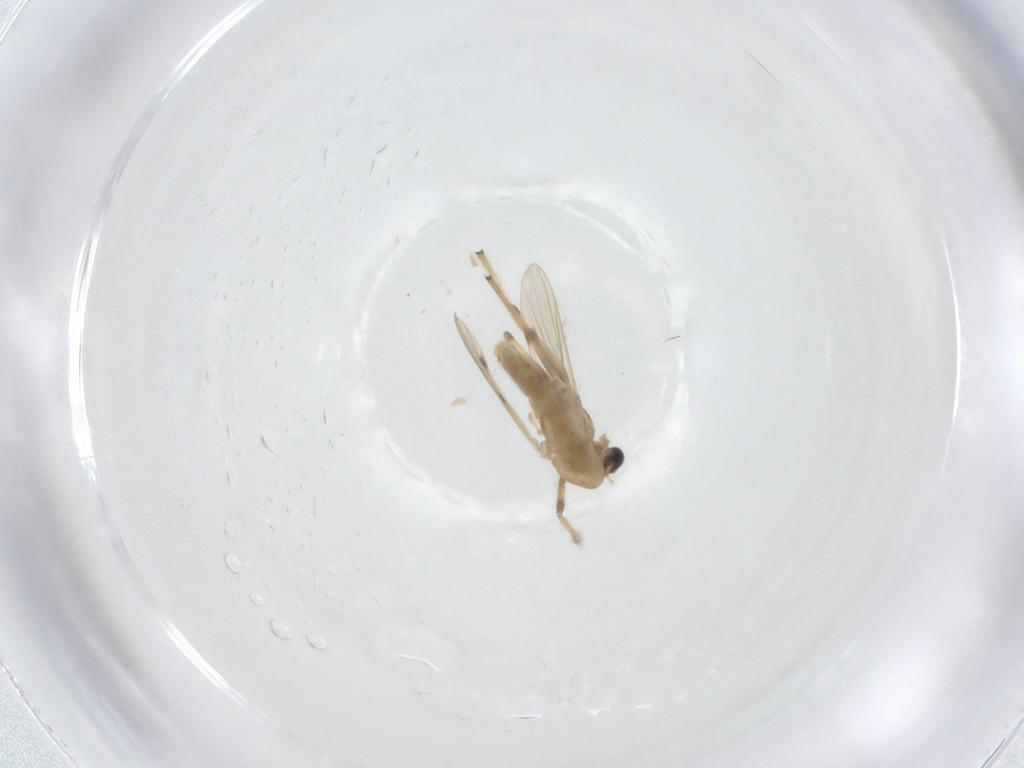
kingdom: Animalia
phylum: Arthropoda
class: Insecta
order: Diptera
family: Chironomidae
